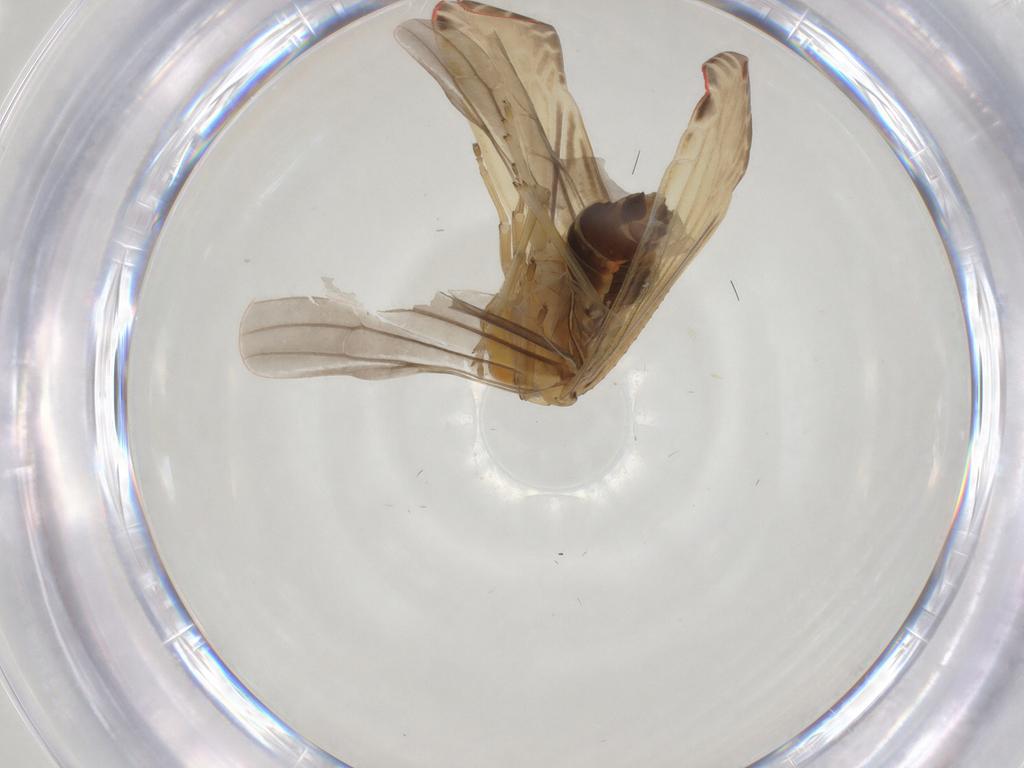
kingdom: Animalia
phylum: Arthropoda
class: Insecta
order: Hemiptera
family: Derbidae
